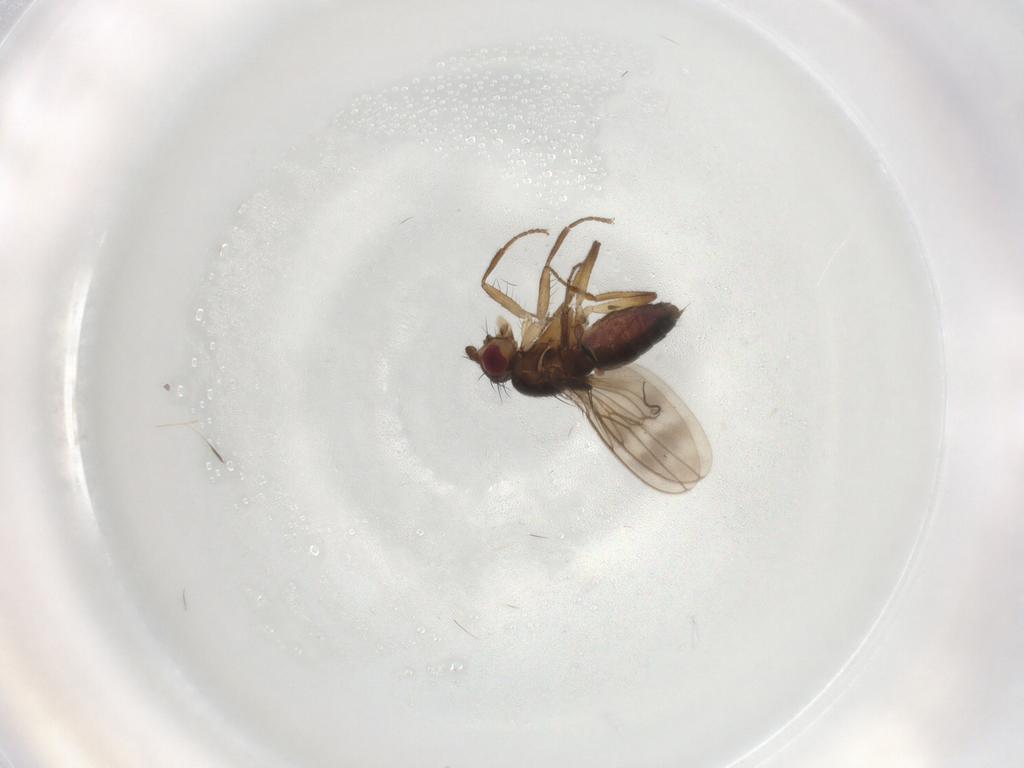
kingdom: Animalia
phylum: Arthropoda
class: Insecta
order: Diptera
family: Sphaeroceridae
